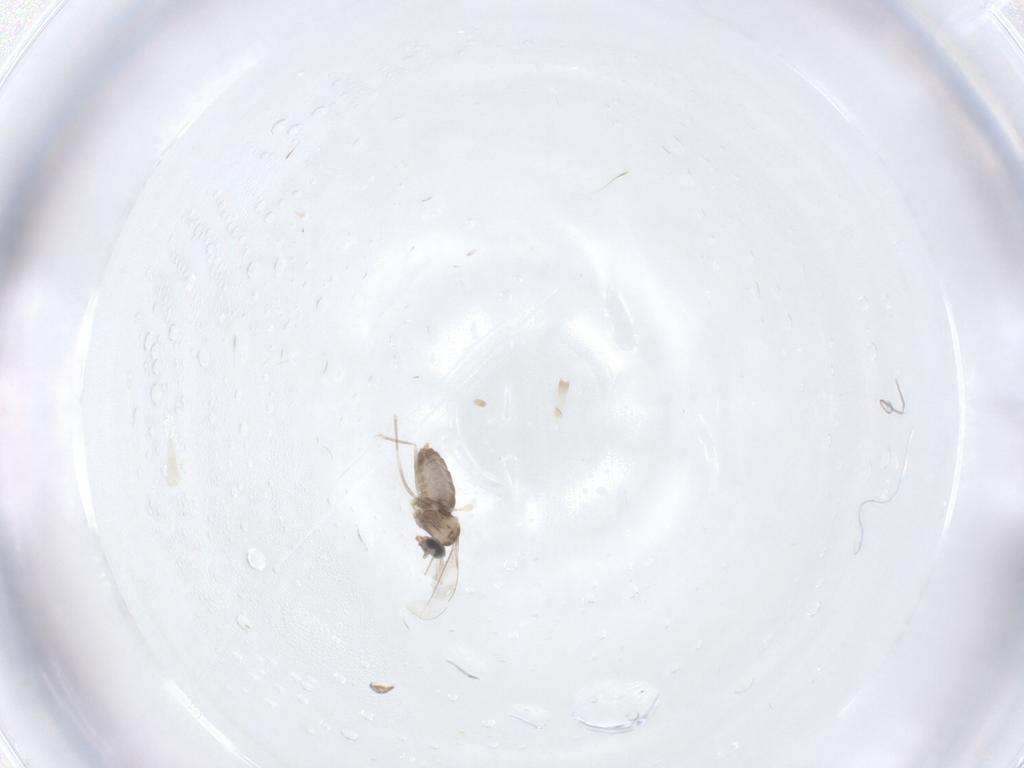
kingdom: Animalia
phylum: Arthropoda
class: Insecta
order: Diptera
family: Cecidomyiidae
